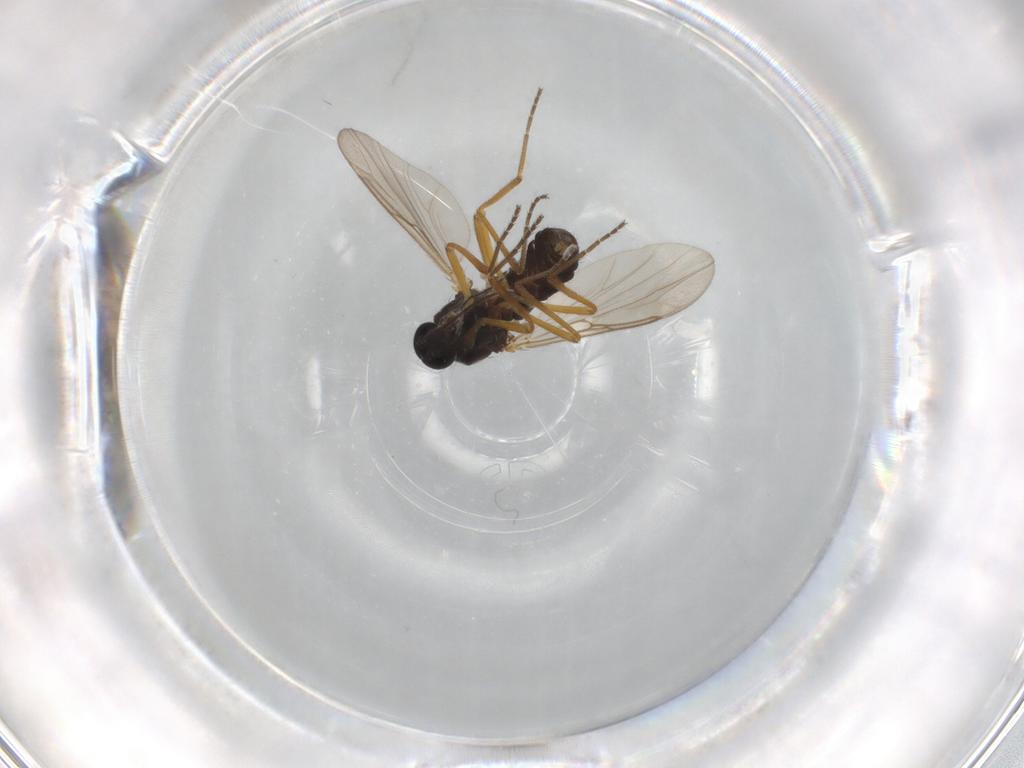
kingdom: Animalia
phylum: Arthropoda
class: Insecta
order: Diptera
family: Ceratopogonidae
